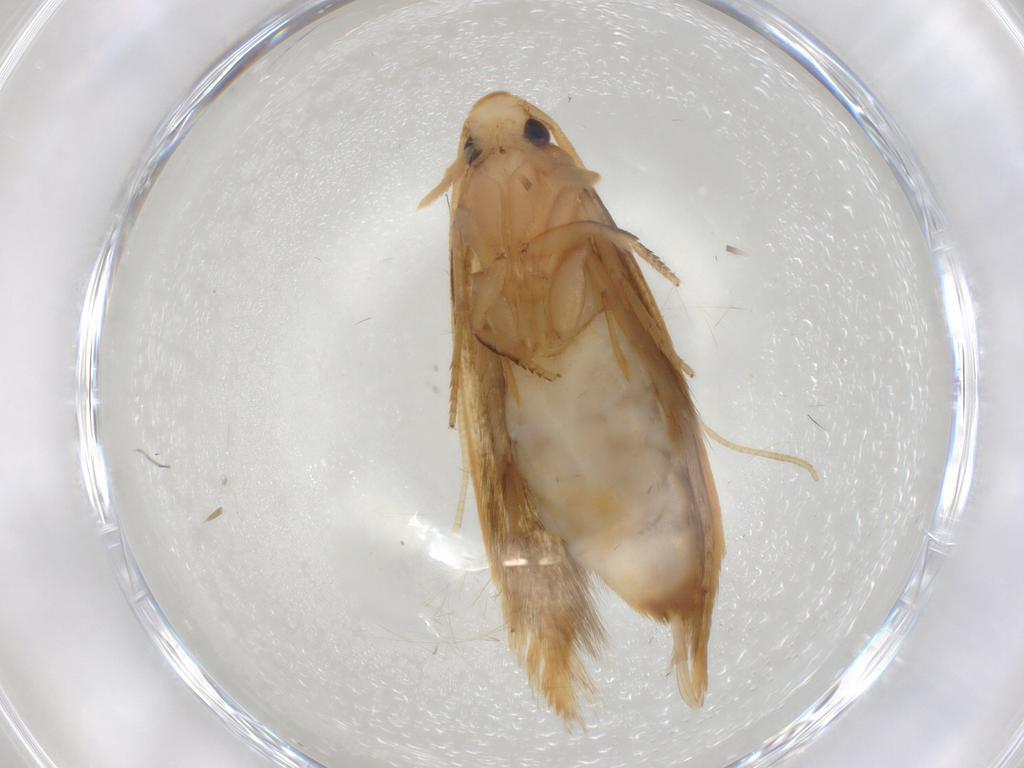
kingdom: Animalia
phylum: Arthropoda
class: Insecta
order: Lepidoptera
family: Tineidae
